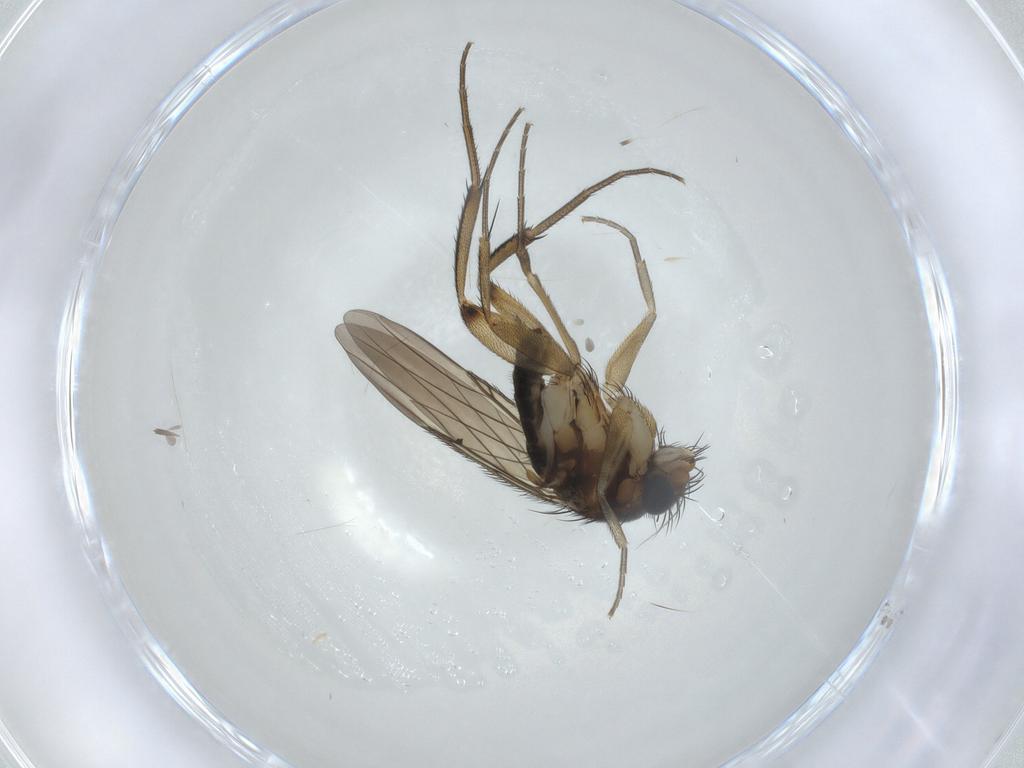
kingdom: Animalia
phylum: Arthropoda
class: Insecta
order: Diptera
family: Phoridae
